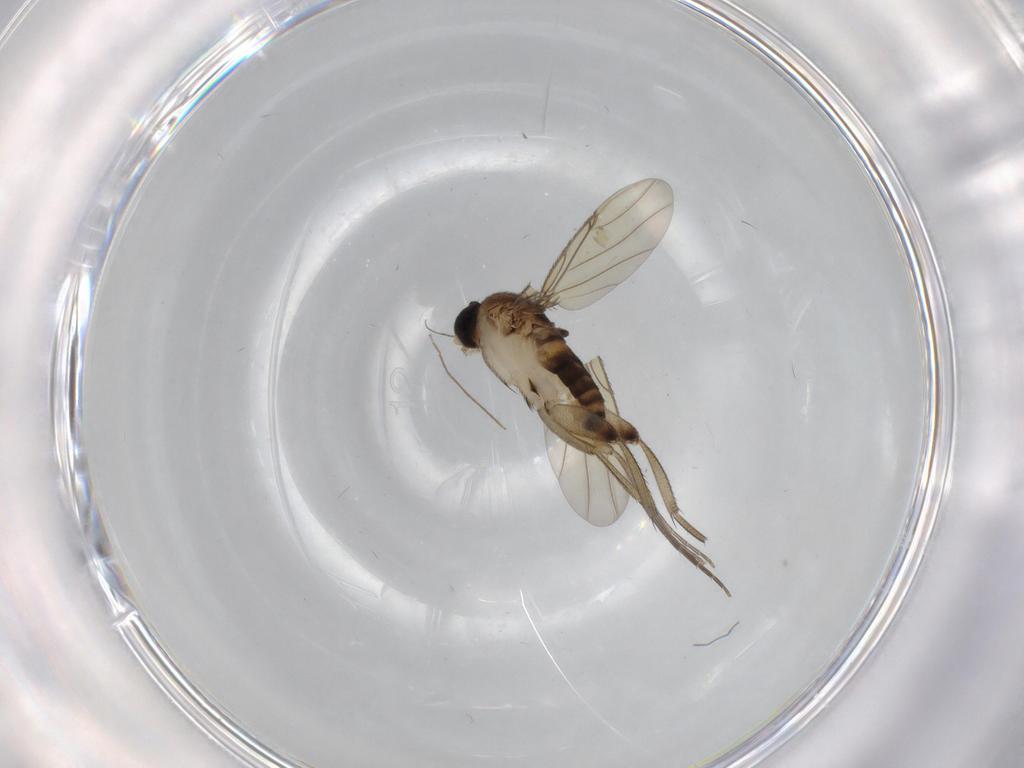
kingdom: Animalia
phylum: Arthropoda
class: Insecta
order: Diptera
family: Phoridae
